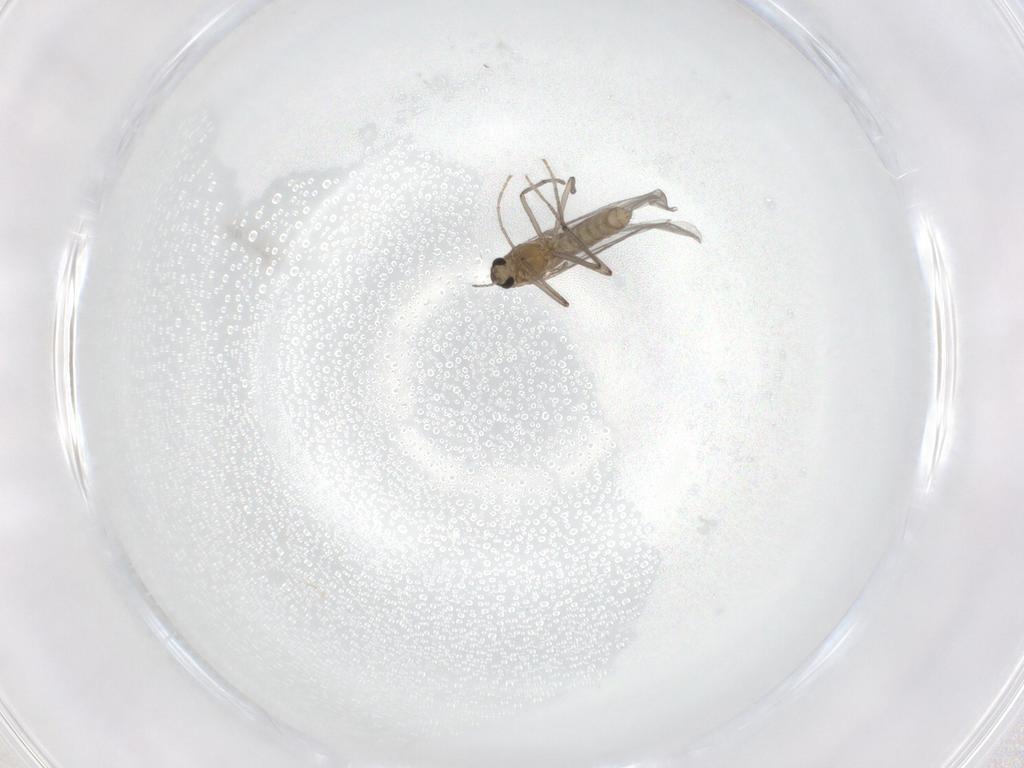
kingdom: Animalia
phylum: Arthropoda
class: Insecta
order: Diptera
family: Chironomidae
